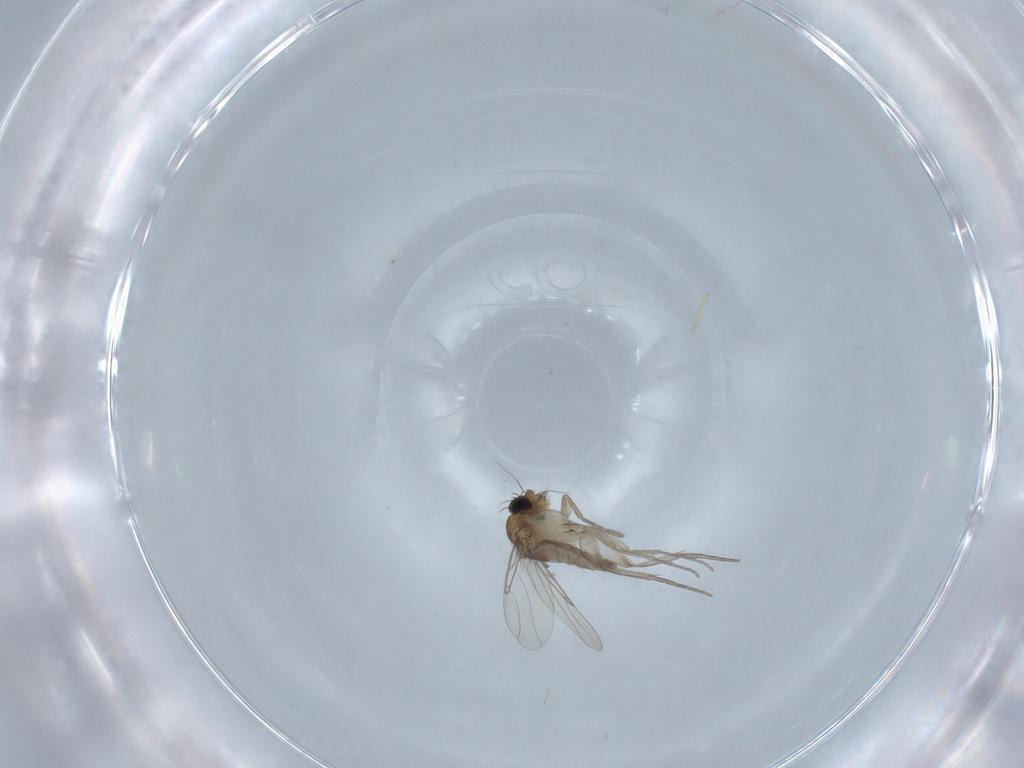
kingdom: Animalia
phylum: Arthropoda
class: Insecta
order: Diptera
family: Phoridae
